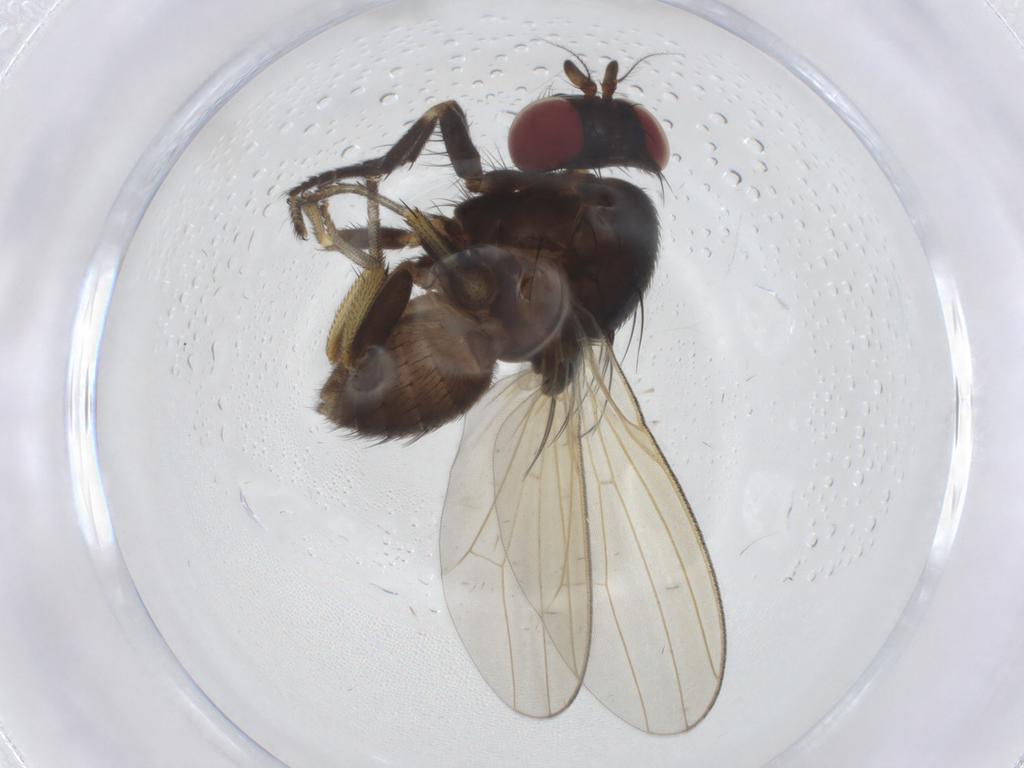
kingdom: Animalia
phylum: Arthropoda
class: Insecta
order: Diptera
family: Lauxaniidae
